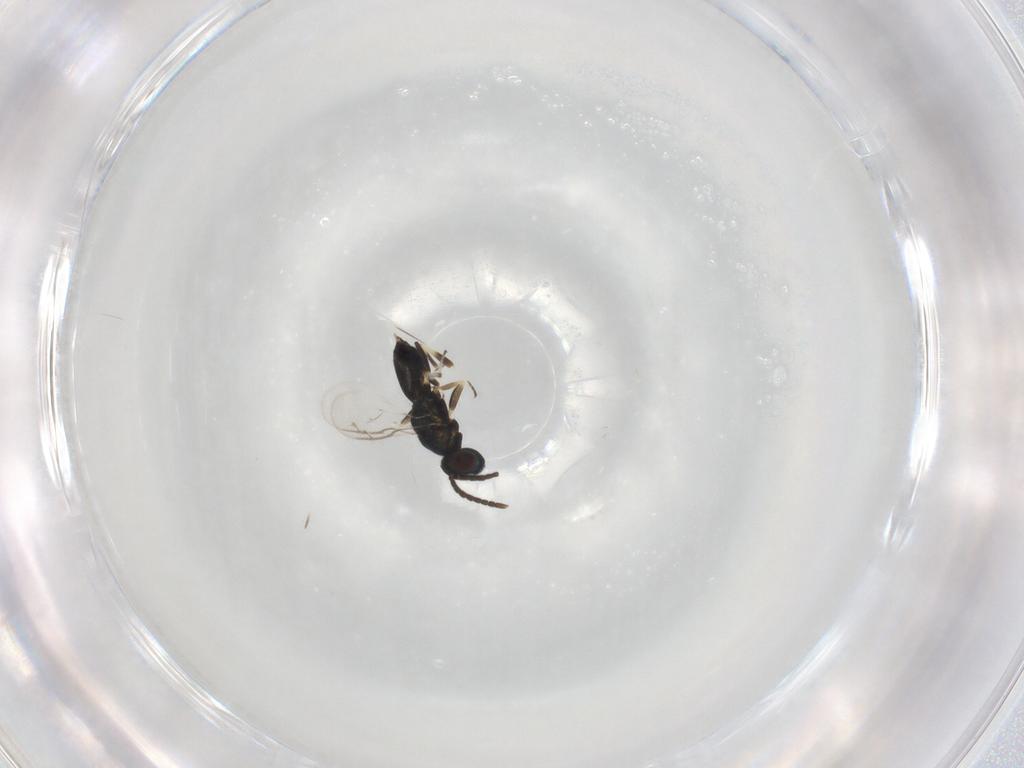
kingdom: Animalia
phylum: Arthropoda
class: Insecta
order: Hymenoptera
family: Eupelmidae
